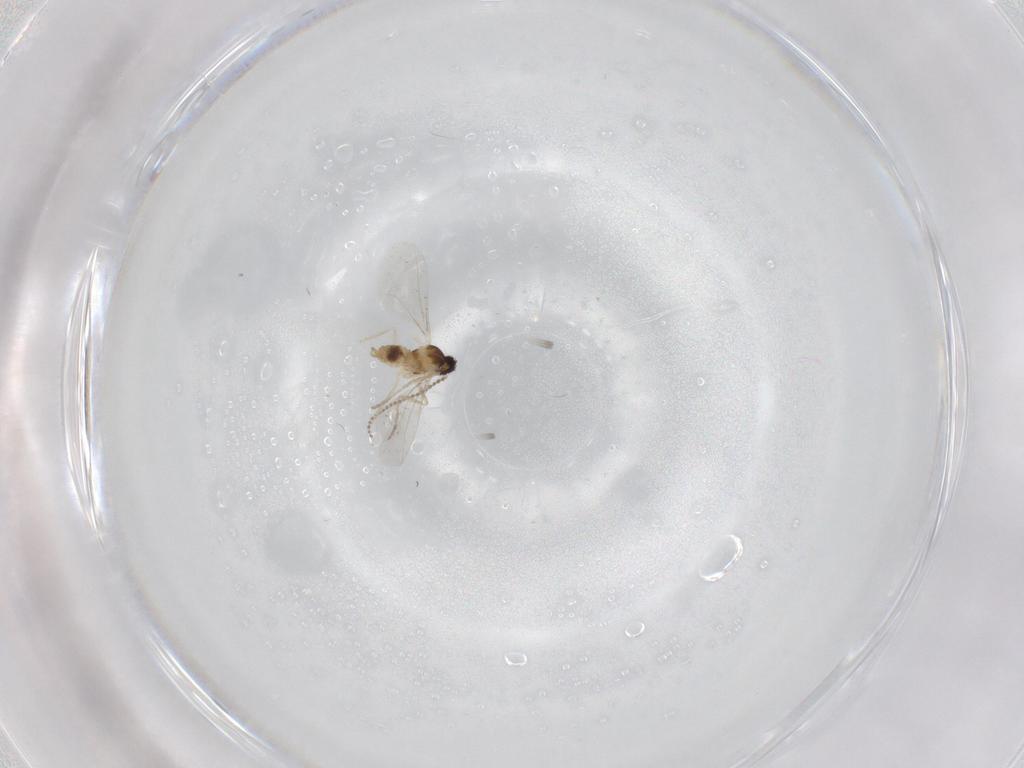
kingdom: Animalia
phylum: Arthropoda
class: Insecta
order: Diptera
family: Cecidomyiidae
